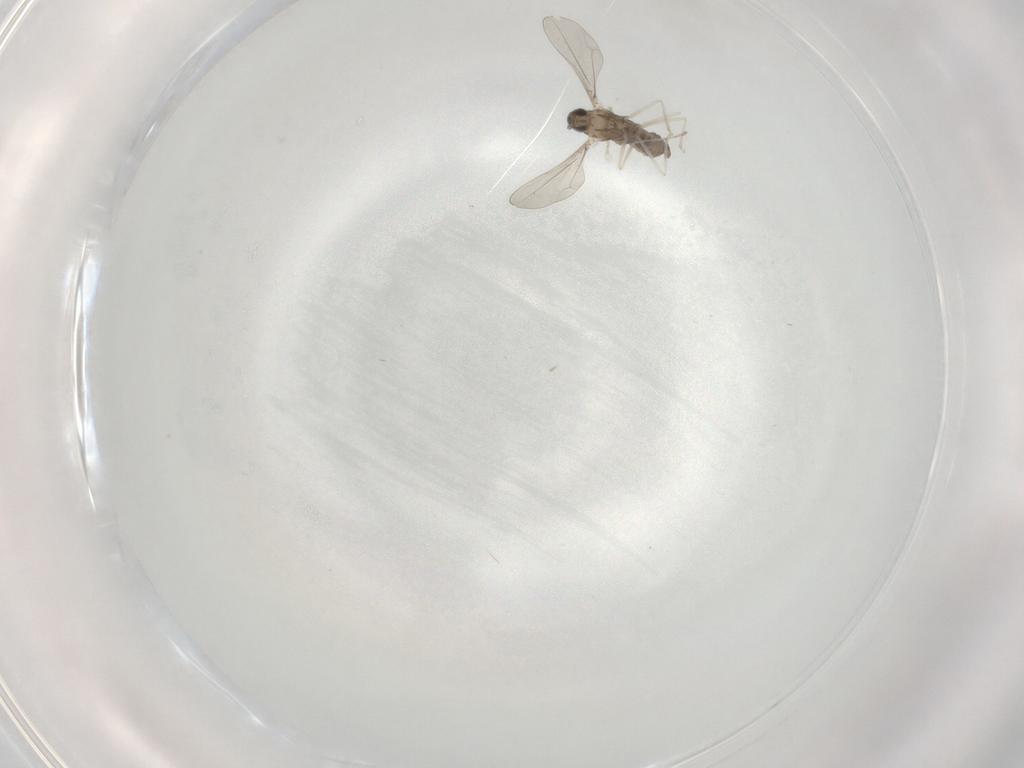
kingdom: Animalia
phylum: Arthropoda
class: Insecta
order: Diptera
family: Cecidomyiidae
